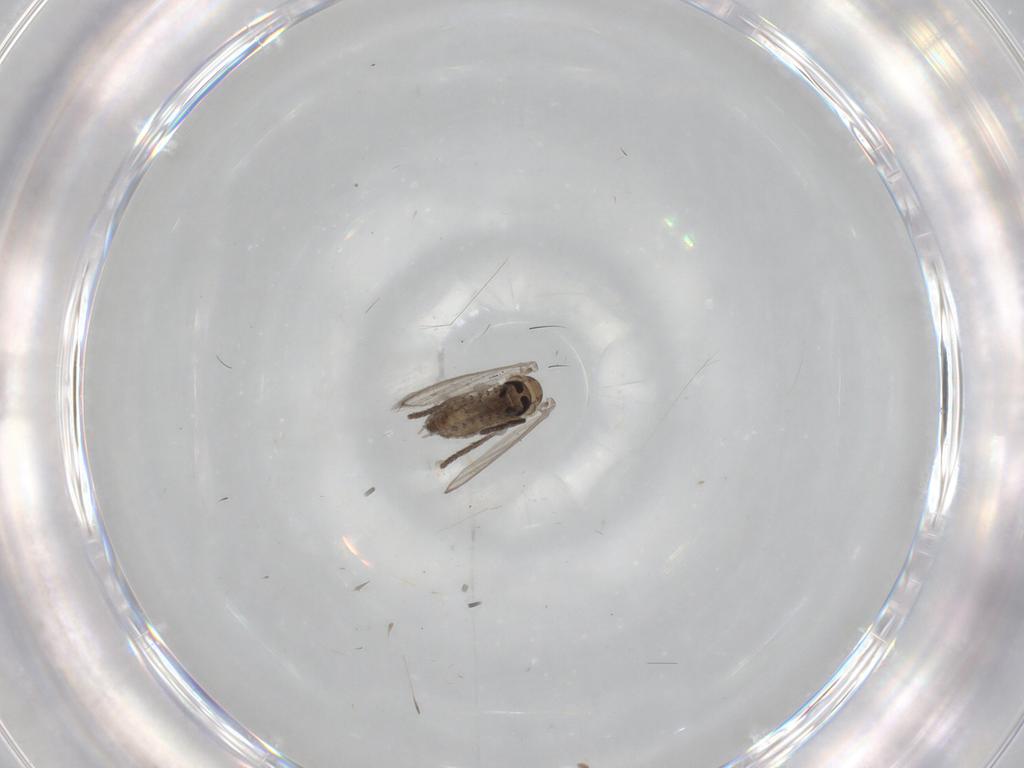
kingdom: Animalia
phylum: Arthropoda
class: Insecta
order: Diptera
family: Psychodidae
